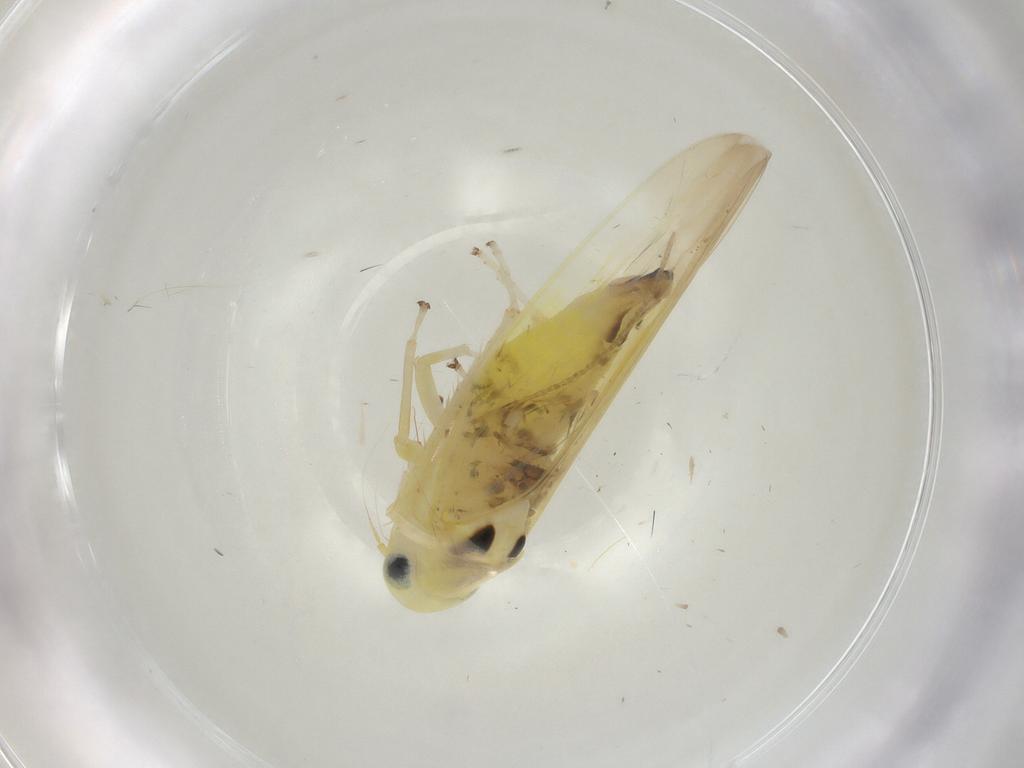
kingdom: Animalia
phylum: Arthropoda
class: Insecta
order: Hemiptera
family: Cicadellidae
